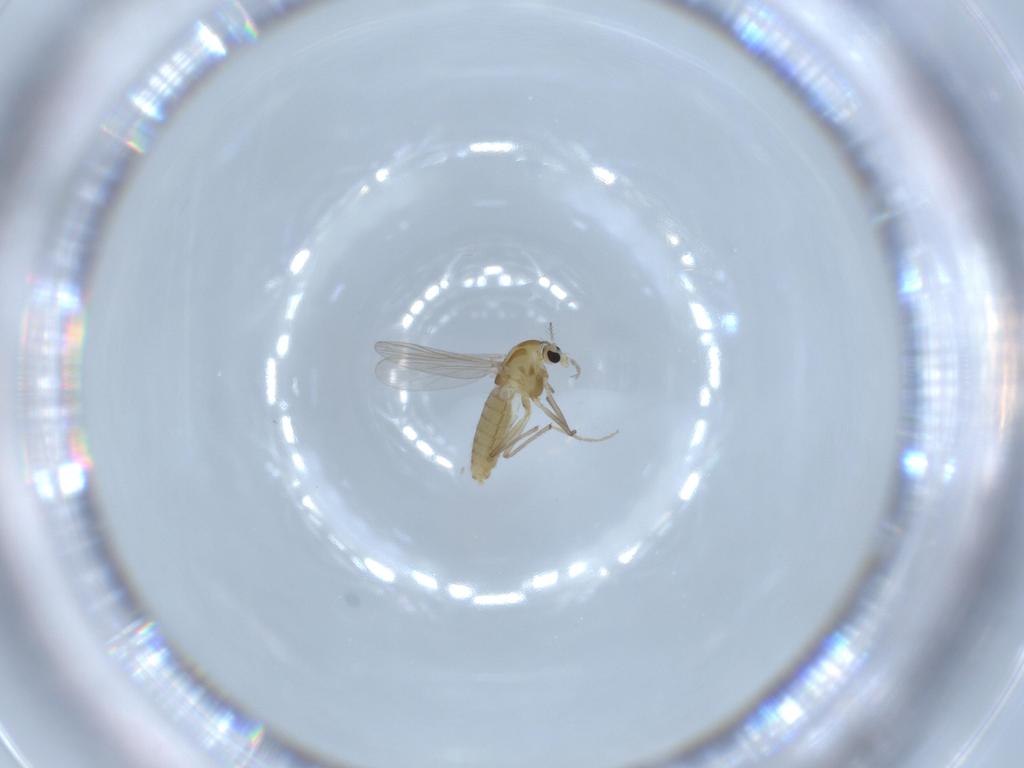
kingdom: Animalia
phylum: Arthropoda
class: Insecta
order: Diptera
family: Chironomidae
